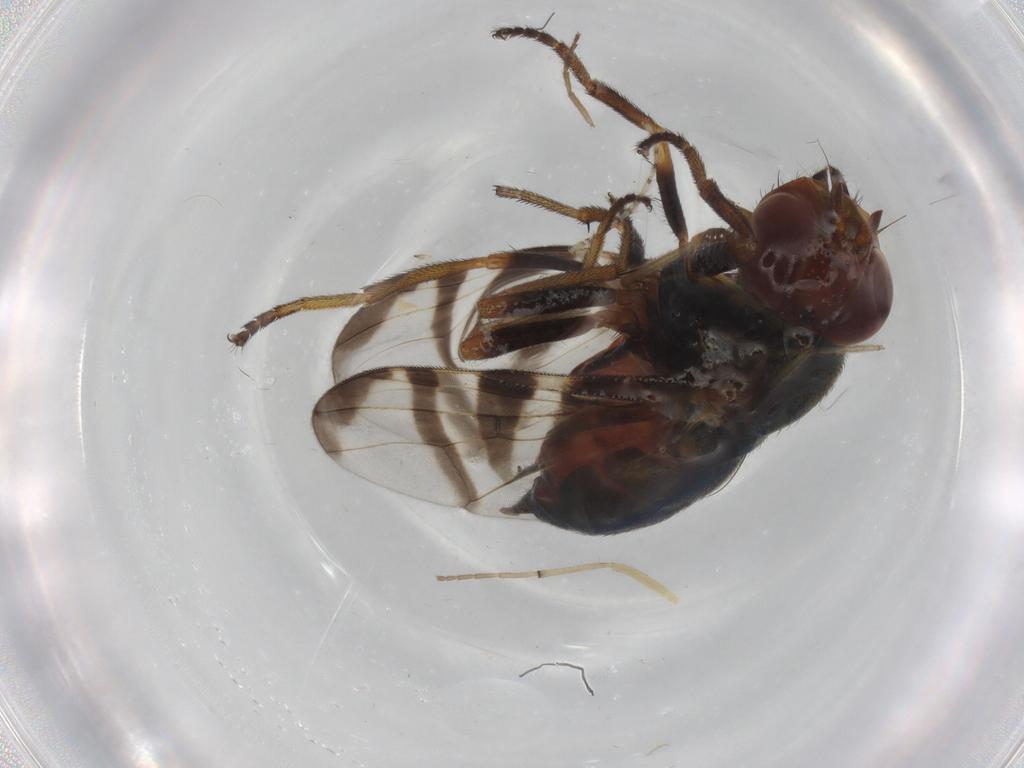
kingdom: Animalia
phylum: Arthropoda
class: Insecta
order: Diptera
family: Platystomatidae
